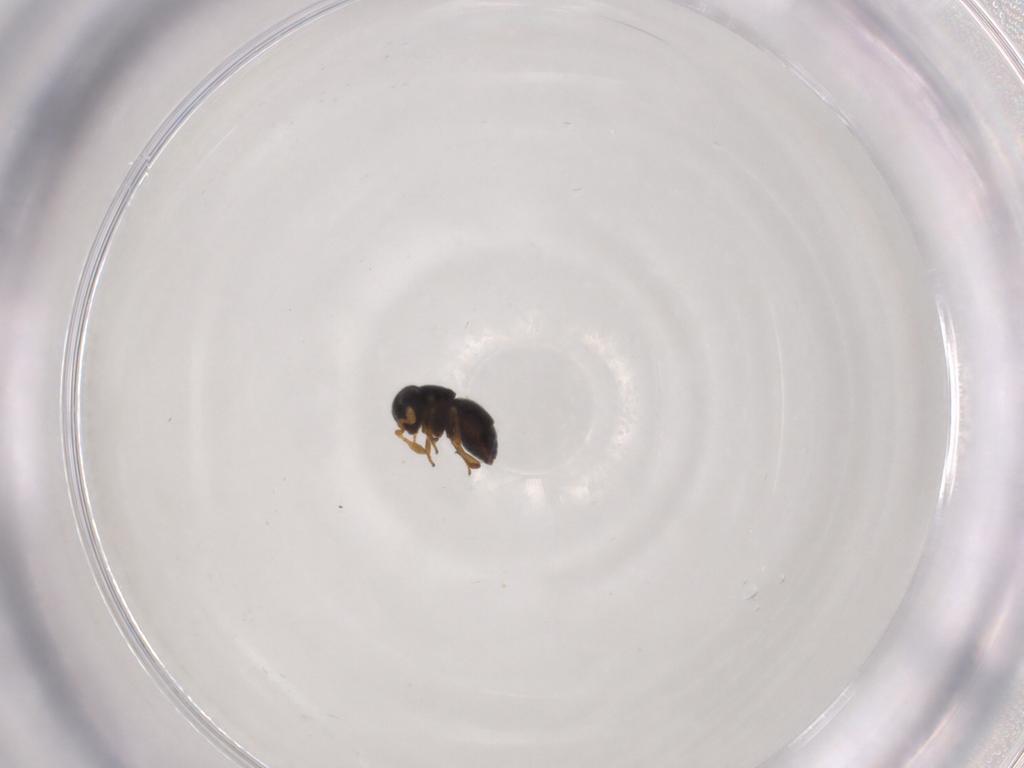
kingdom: Animalia
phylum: Arthropoda
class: Insecta
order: Hymenoptera
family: Scelionidae
